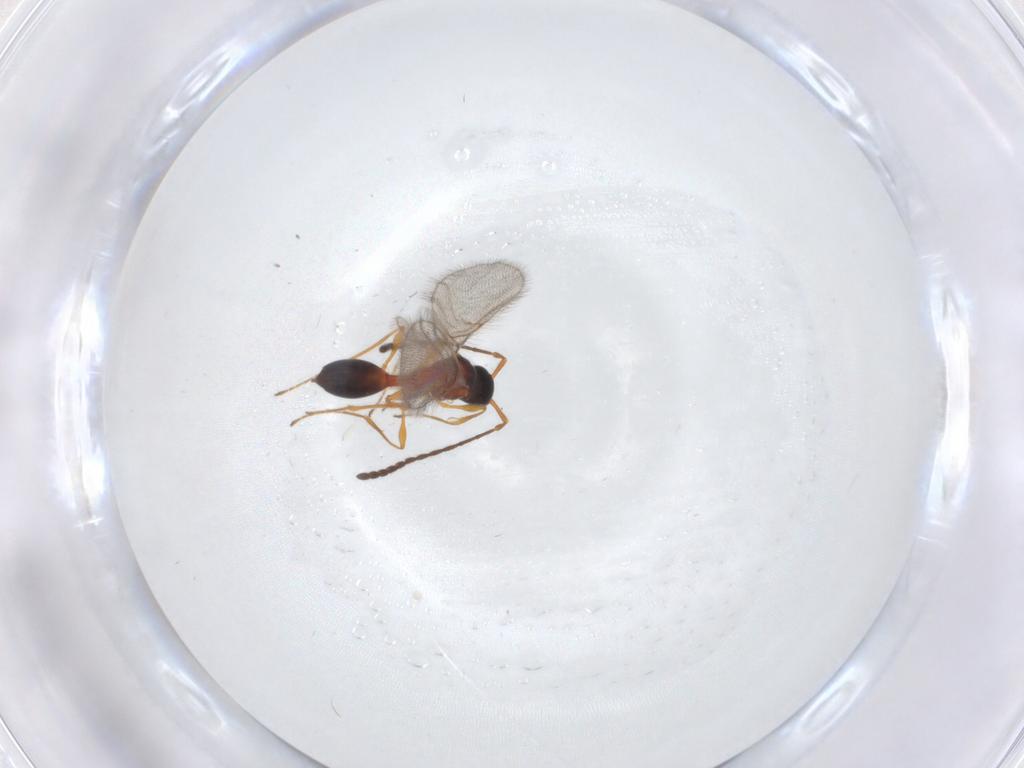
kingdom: Animalia
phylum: Arthropoda
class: Insecta
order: Hymenoptera
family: Diapriidae
